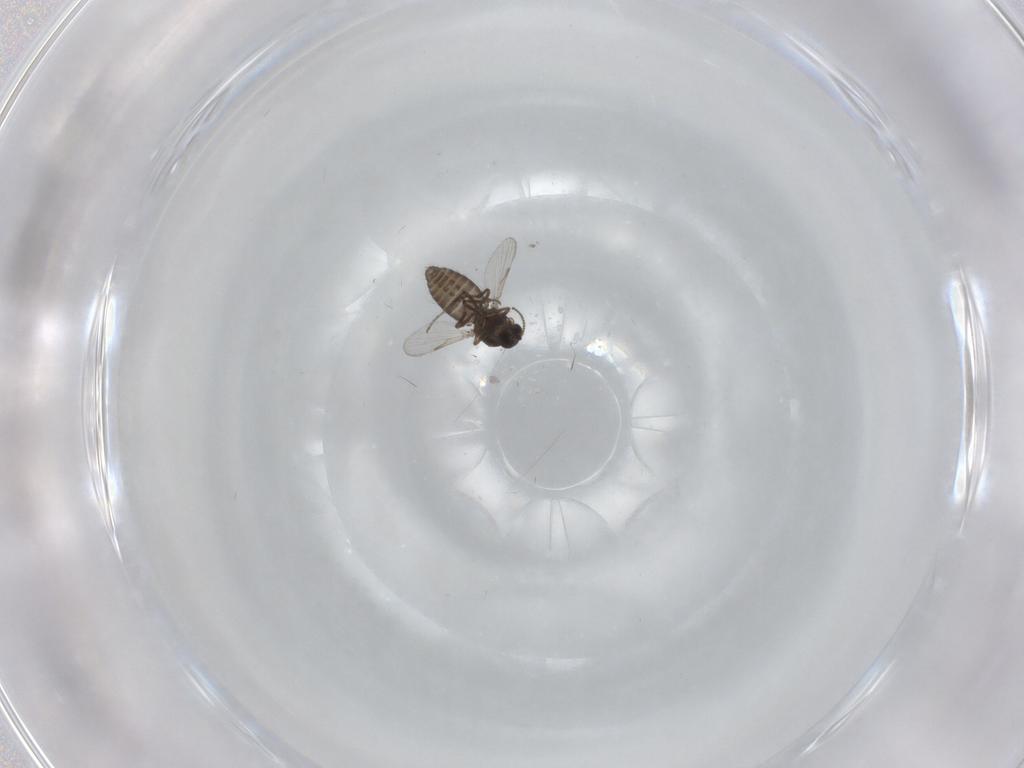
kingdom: Animalia
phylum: Arthropoda
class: Insecta
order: Diptera
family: Ceratopogonidae
